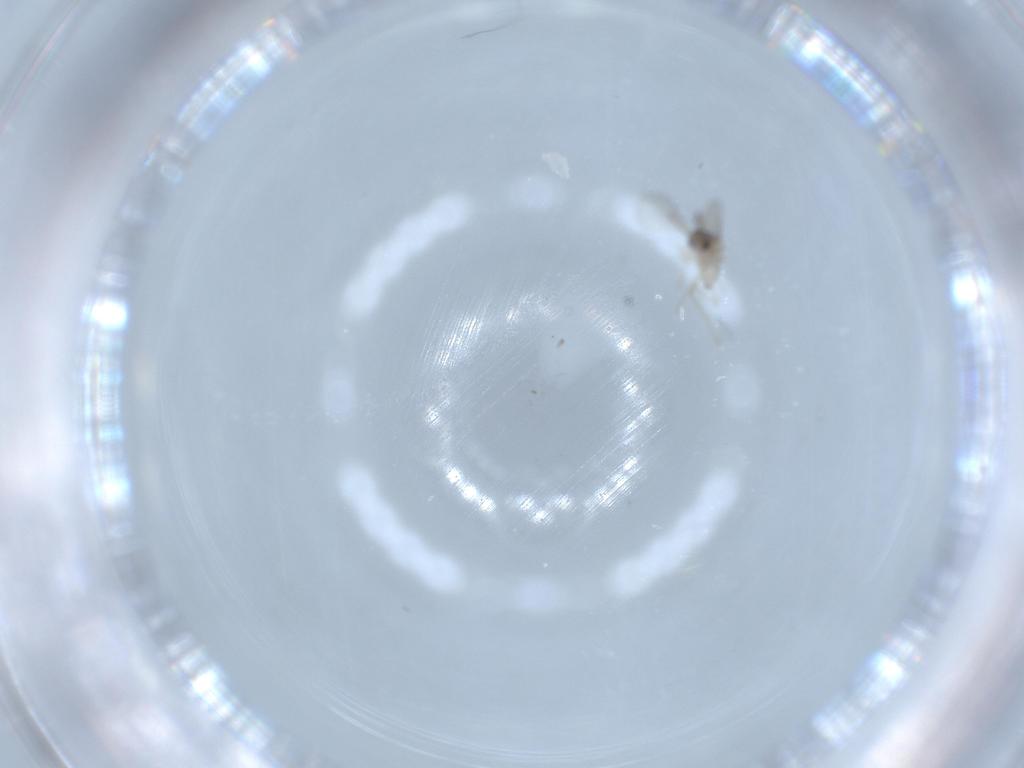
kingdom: Animalia
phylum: Arthropoda
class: Insecta
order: Diptera
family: Cecidomyiidae
